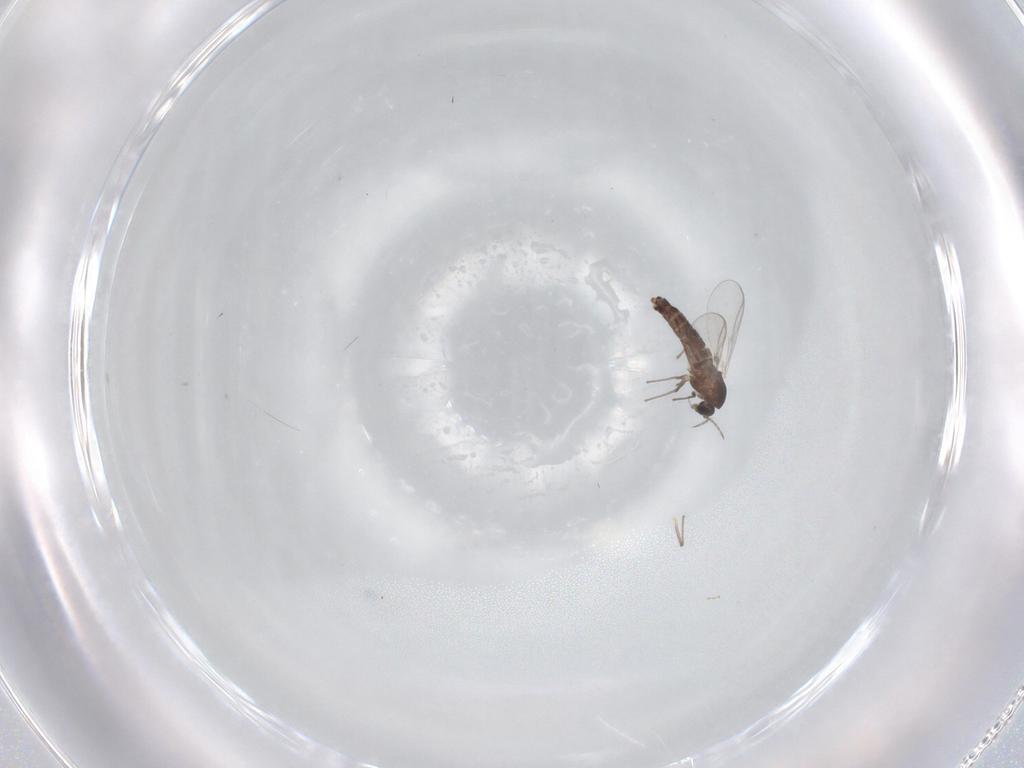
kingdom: Animalia
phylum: Arthropoda
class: Insecta
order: Diptera
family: Chironomidae
